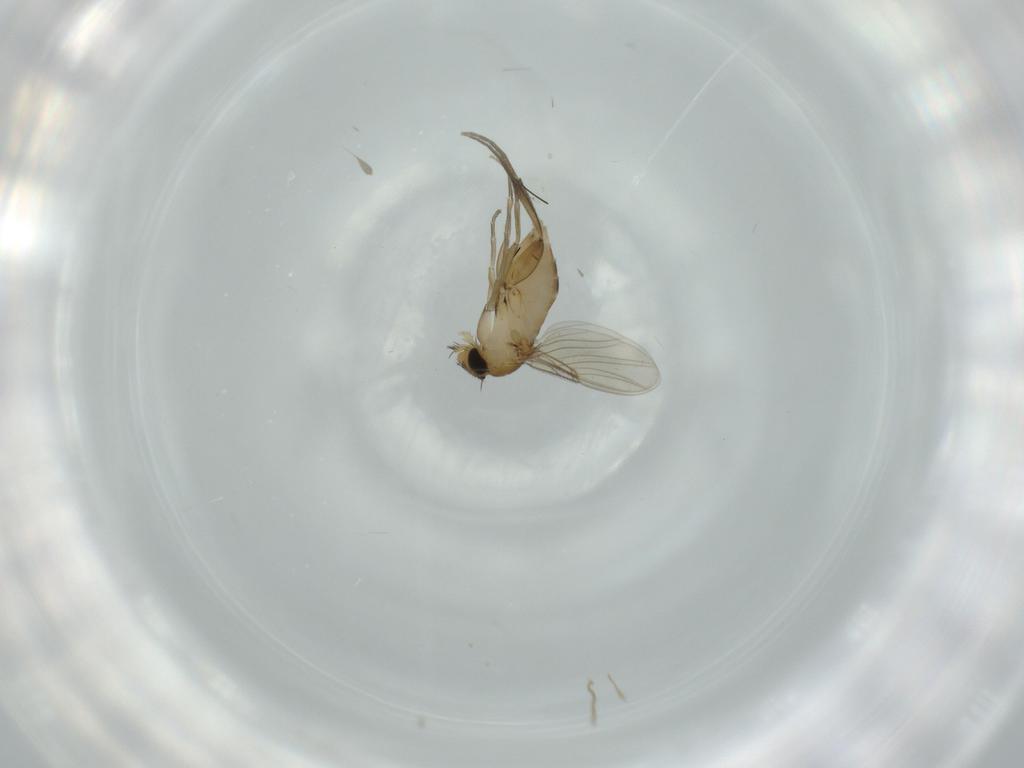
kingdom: Animalia
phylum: Arthropoda
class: Insecta
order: Diptera
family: Phoridae
